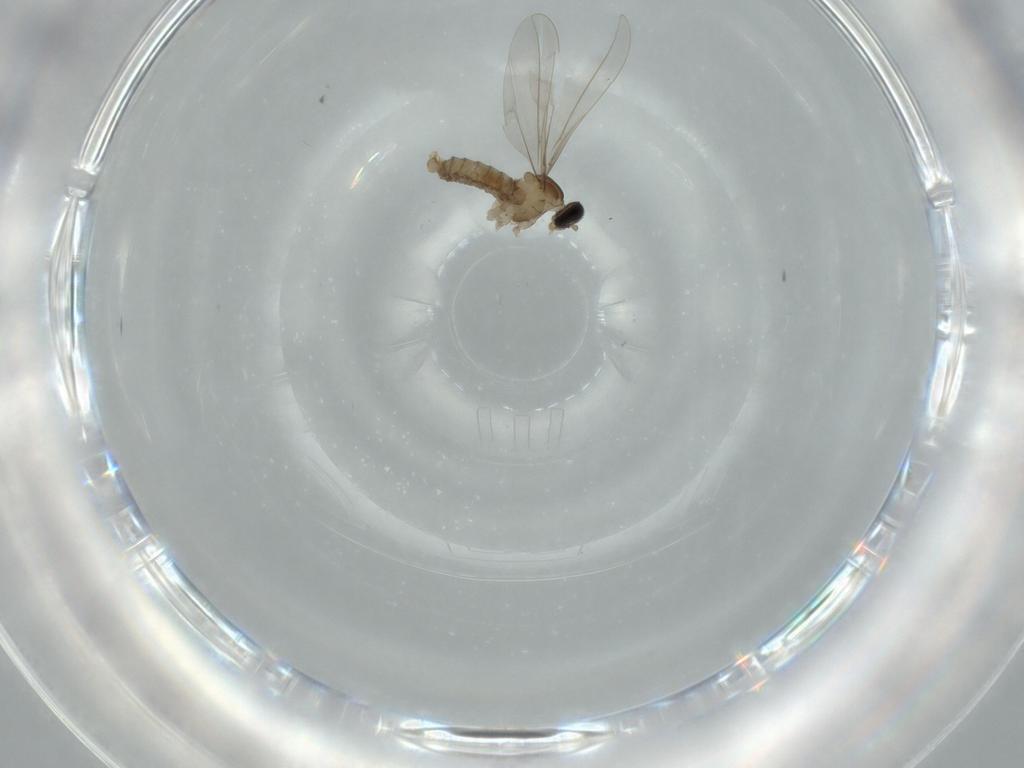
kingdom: Animalia
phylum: Arthropoda
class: Insecta
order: Diptera
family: Cecidomyiidae
